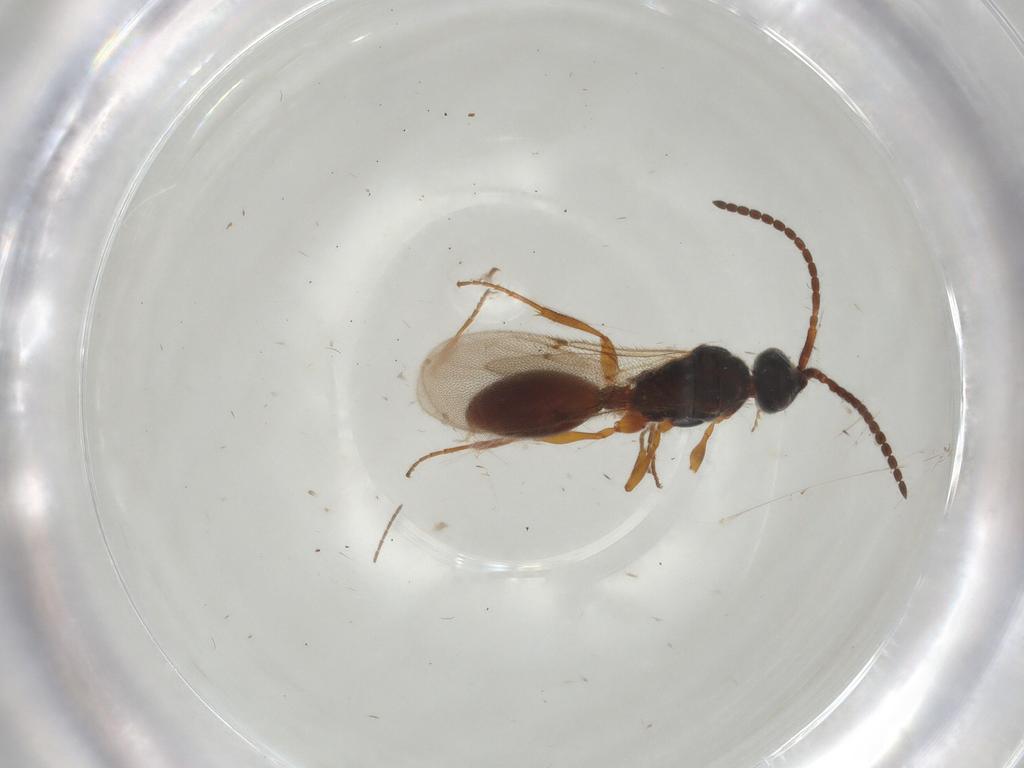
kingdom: Animalia
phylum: Arthropoda
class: Insecta
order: Hymenoptera
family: Diapriidae
